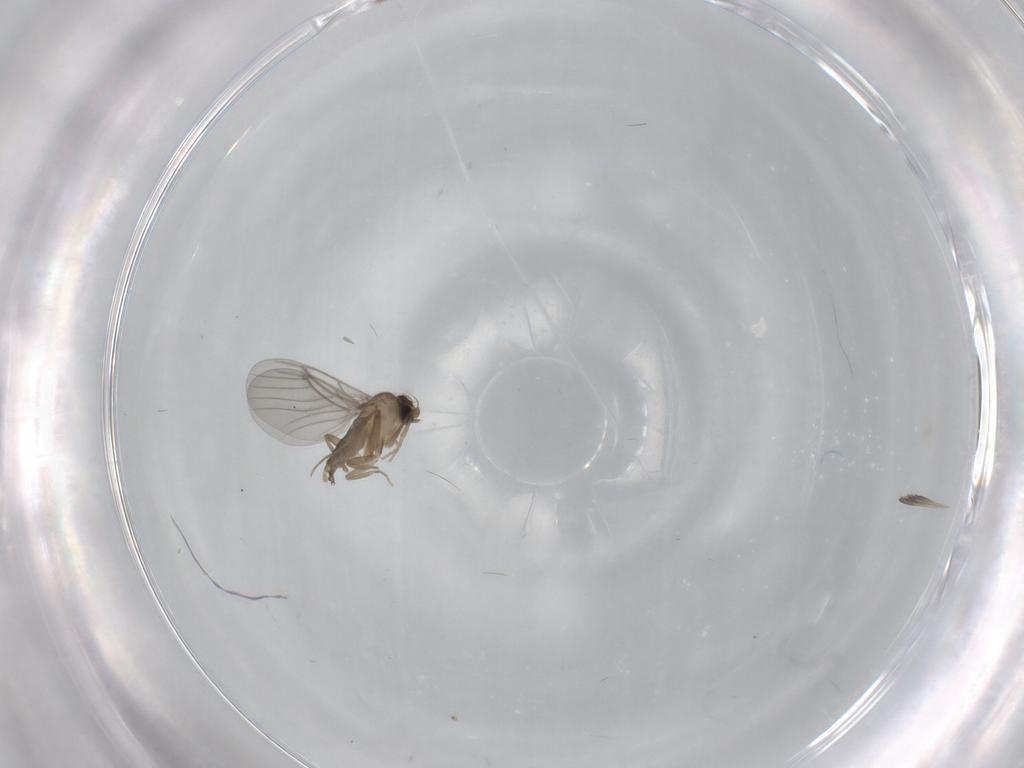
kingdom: Animalia
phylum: Arthropoda
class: Insecta
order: Diptera
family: Phoridae
